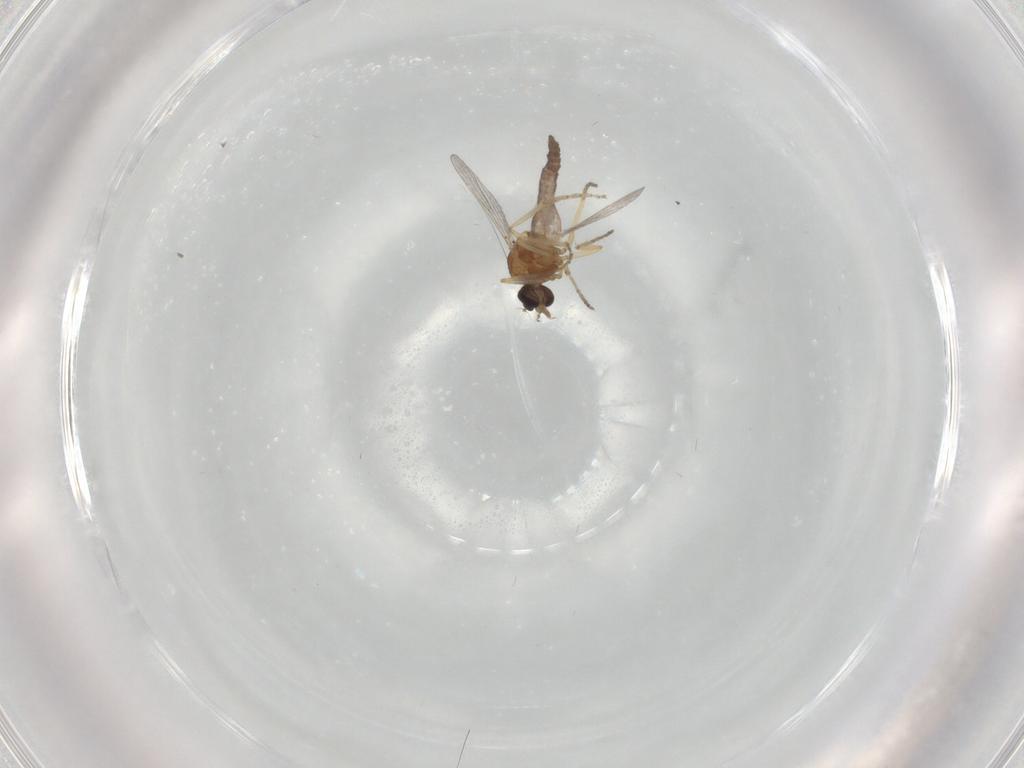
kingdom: Animalia
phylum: Arthropoda
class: Insecta
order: Diptera
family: Ceratopogonidae
